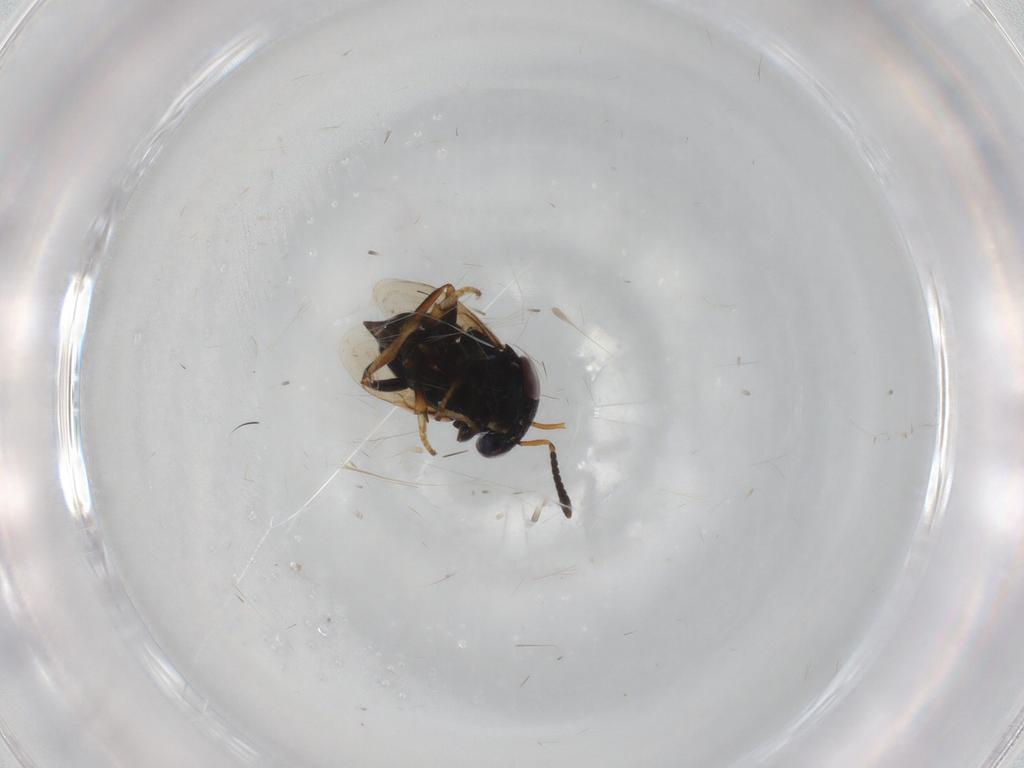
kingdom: Animalia
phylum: Arthropoda
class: Insecta
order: Hymenoptera
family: Perilampidae
